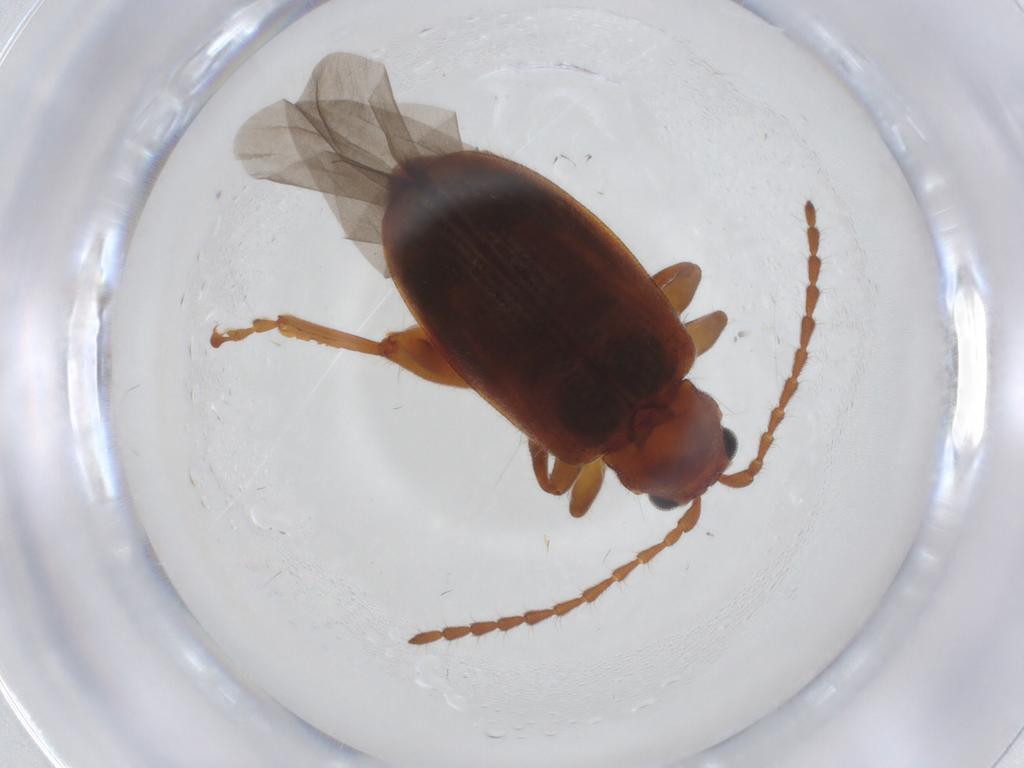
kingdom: Animalia
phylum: Arthropoda
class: Insecta
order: Coleoptera
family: Chrysomelidae
